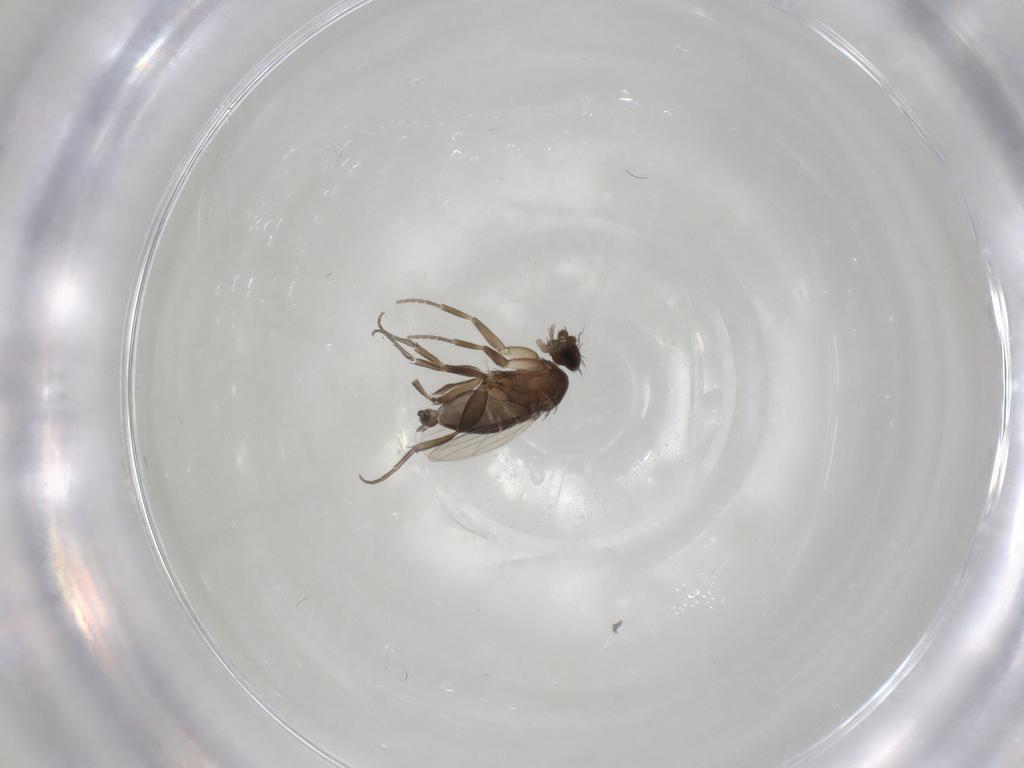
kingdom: Animalia
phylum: Arthropoda
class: Insecta
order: Diptera
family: Phoridae
